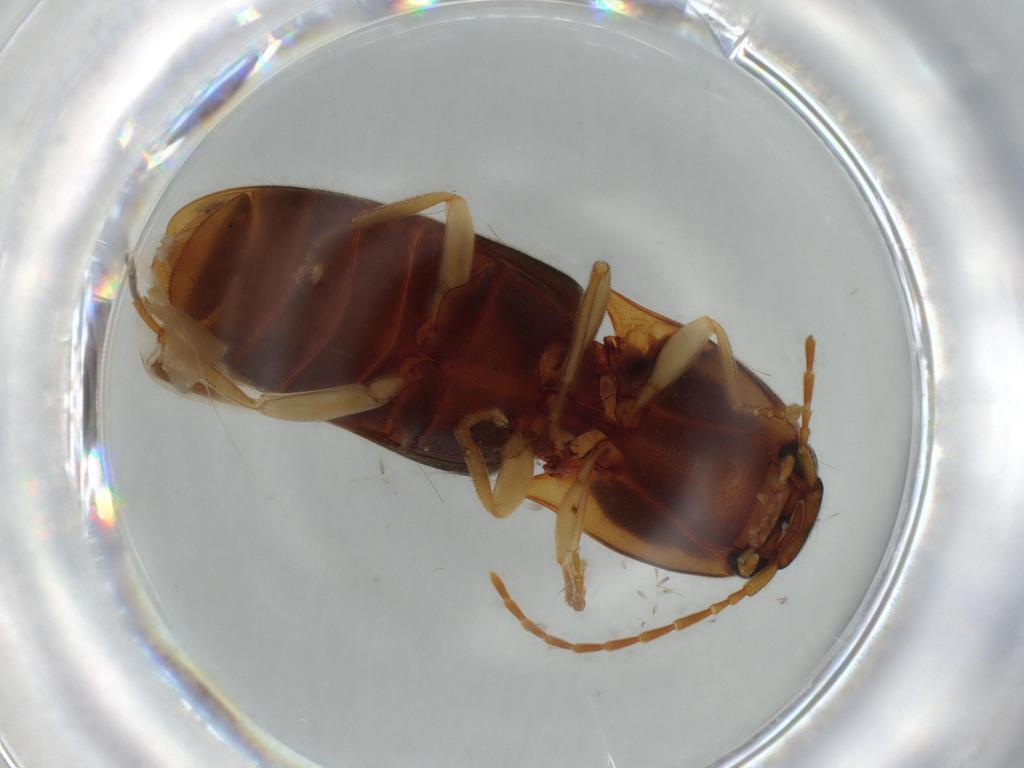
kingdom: Animalia
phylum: Arthropoda
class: Insecta
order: Coleoptera
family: Elateridae
